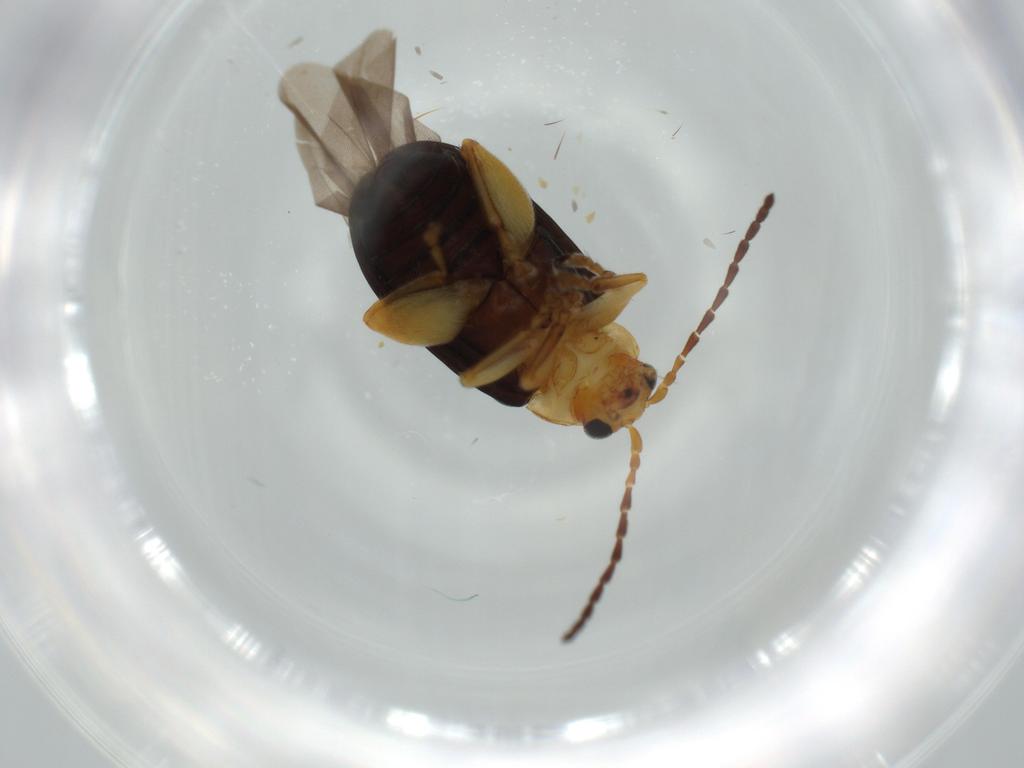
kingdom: Animalia
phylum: Arthropoda
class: Insecta
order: Coleoptera
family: Chrysomelidae
